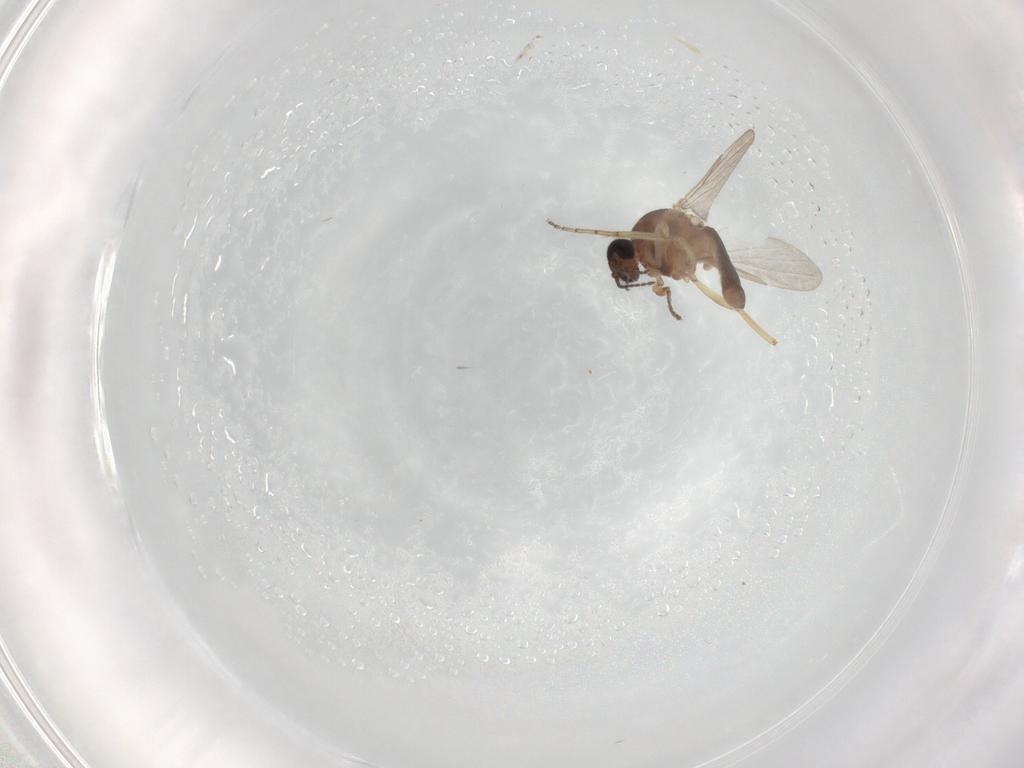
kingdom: Animalia
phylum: Arthropoda
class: Insecta
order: Diptera
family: Ceratopogonidae
